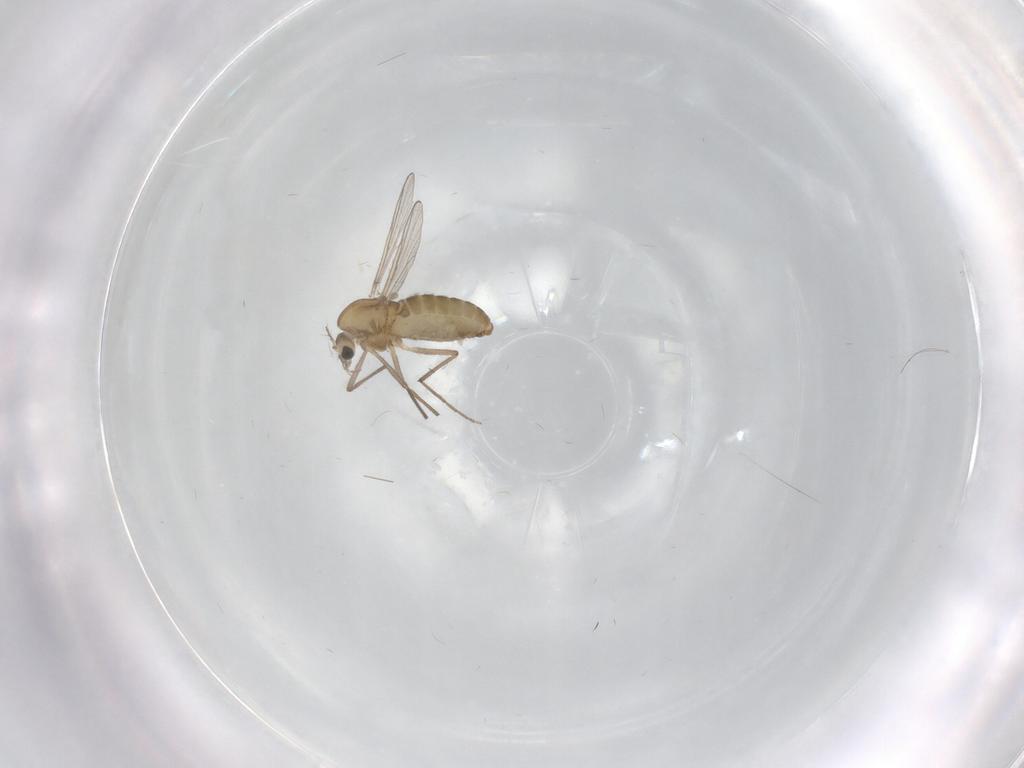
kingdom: Animalia
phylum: Arthropoda
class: Insecta
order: Diptera
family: Chironomidae
